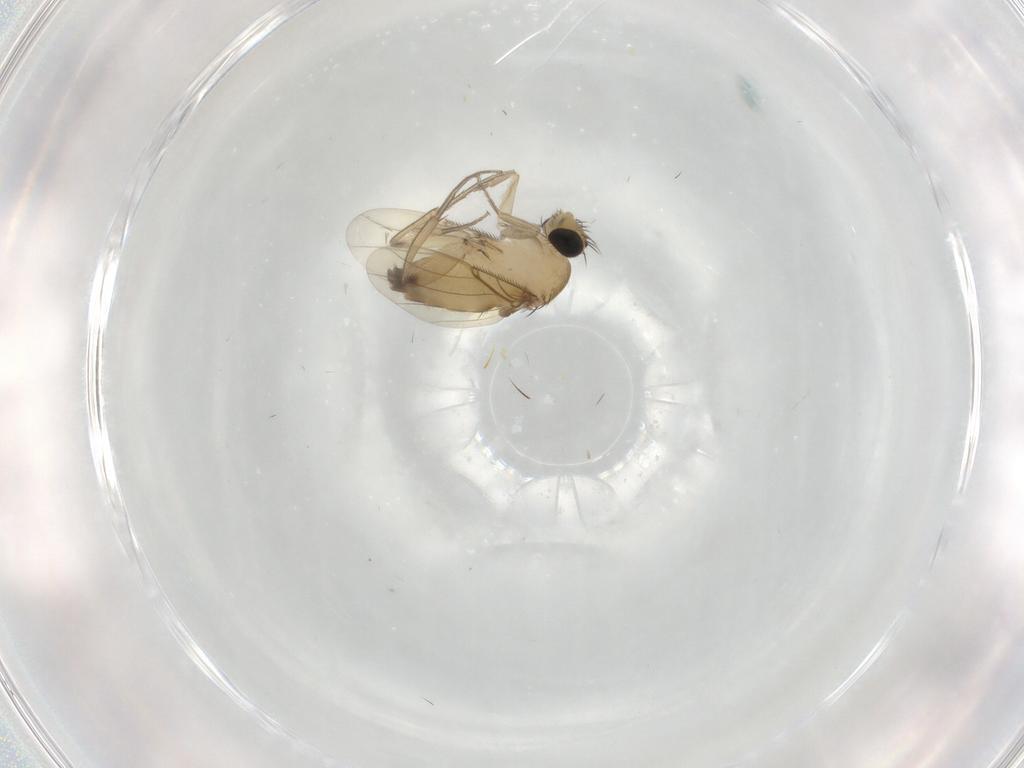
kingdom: Animalia
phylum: Arthropoda
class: Insecta
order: Diptera
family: Phoridae
